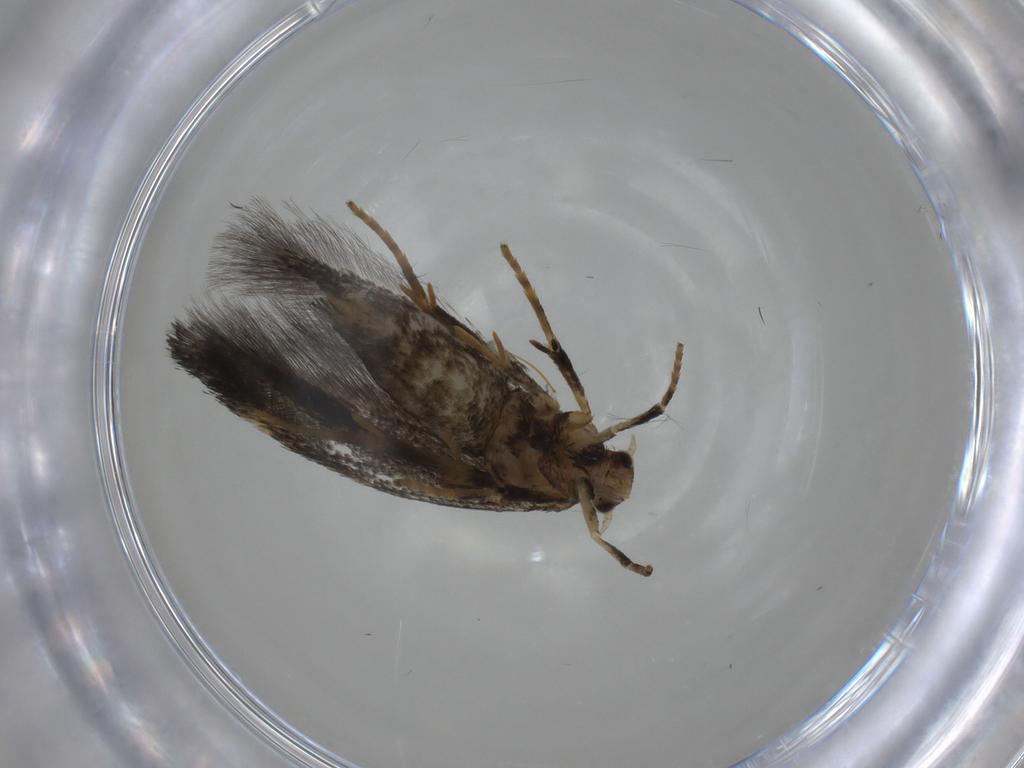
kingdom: Animalia
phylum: Arthropoda
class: Insecta
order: Lepidoptera
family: Gelechiidae
